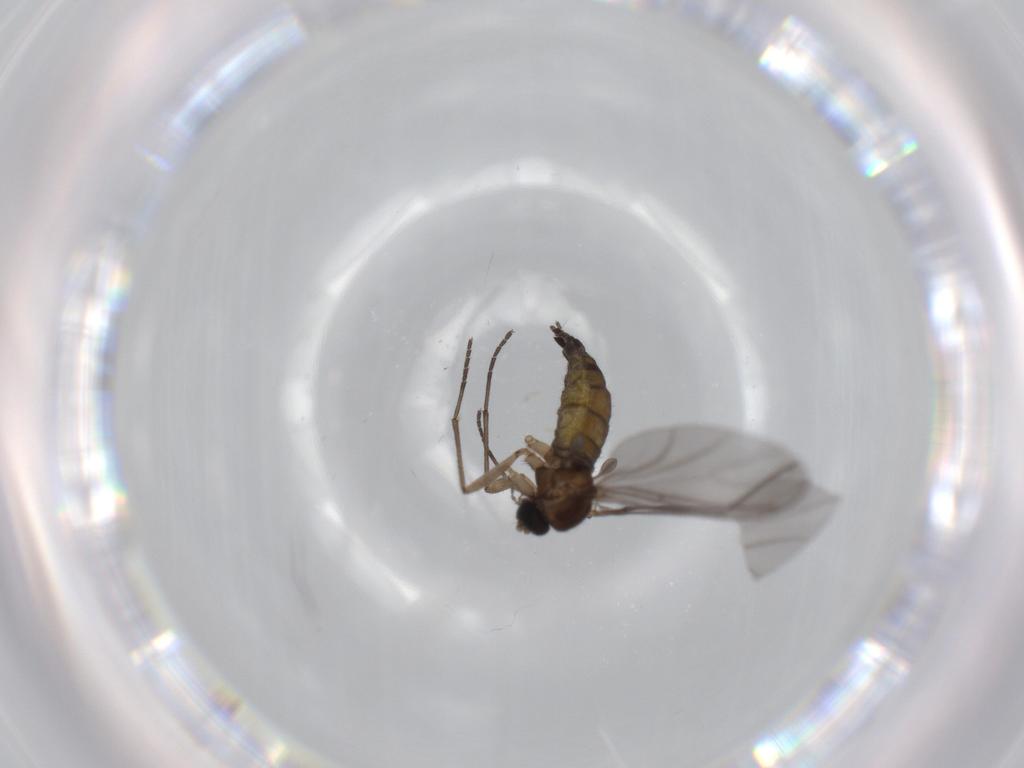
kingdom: Animalia
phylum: Arthropoda
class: Insecta
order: Diptera
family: Sciaridae
